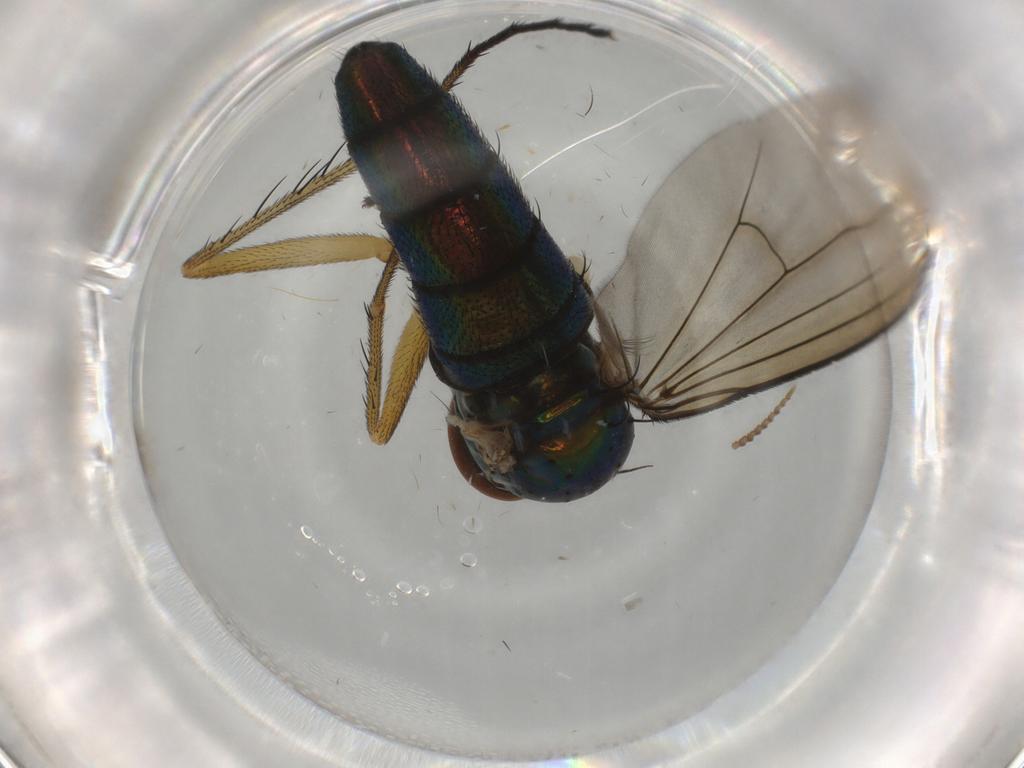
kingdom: Animalia
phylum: Arthropoda
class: Insecta
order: Diptera
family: Dolichopodidae
